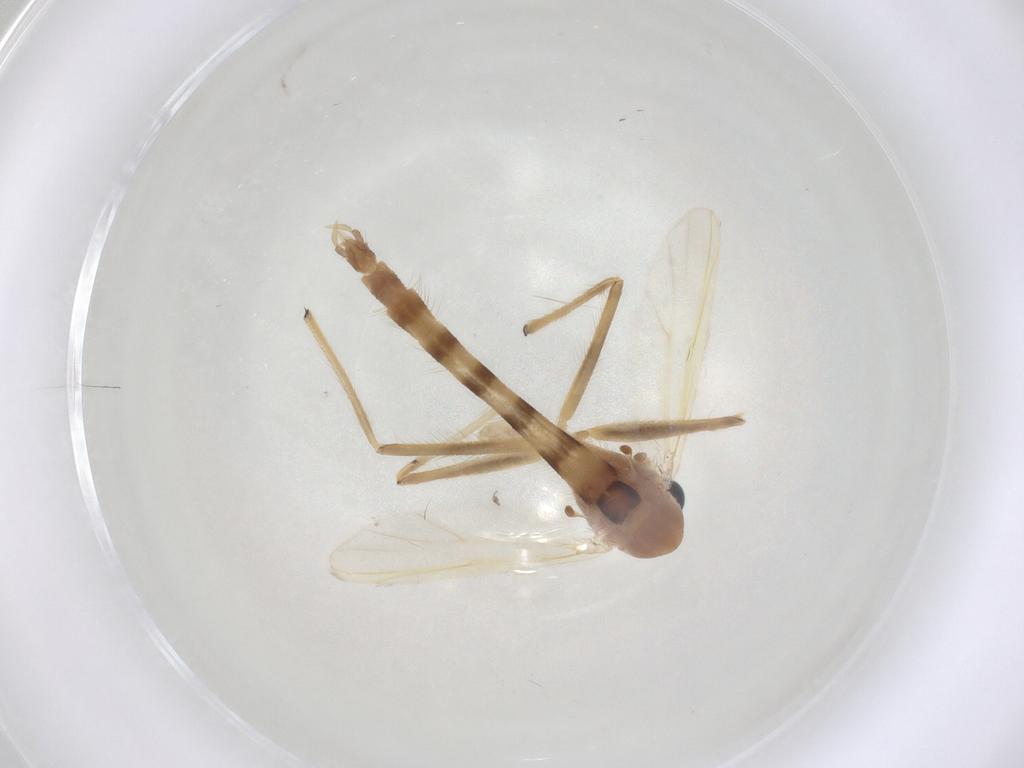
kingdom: Animalia
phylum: Arthropoda
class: Insecta
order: Diptera
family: Chironomidae
